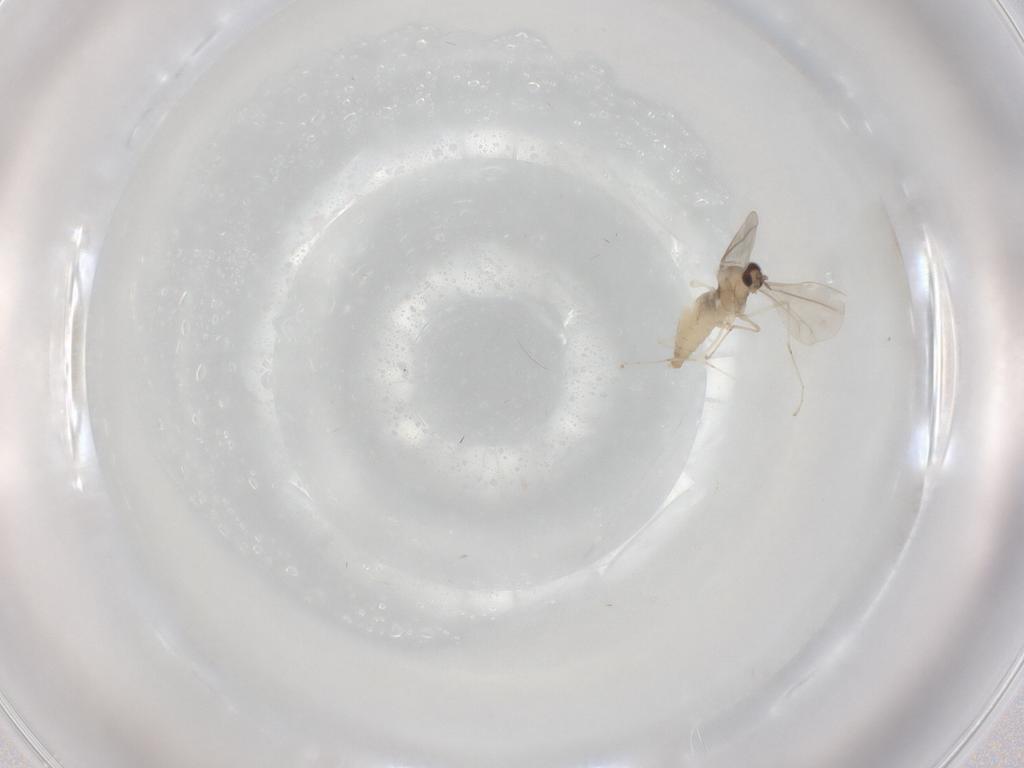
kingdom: Animalia
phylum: Arthropoda
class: Insecta
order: Diptera
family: Cecidomyiidae
